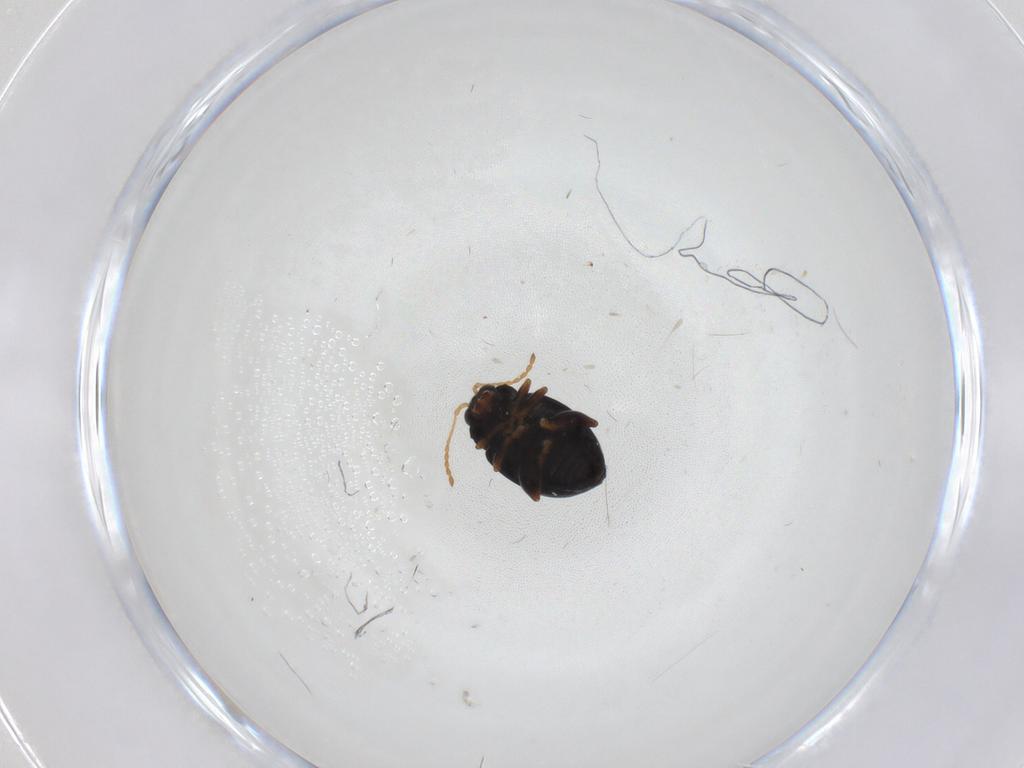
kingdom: Animalia
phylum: Arthropoda
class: Insecta
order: Coleoptera
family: Chrysomelidae
